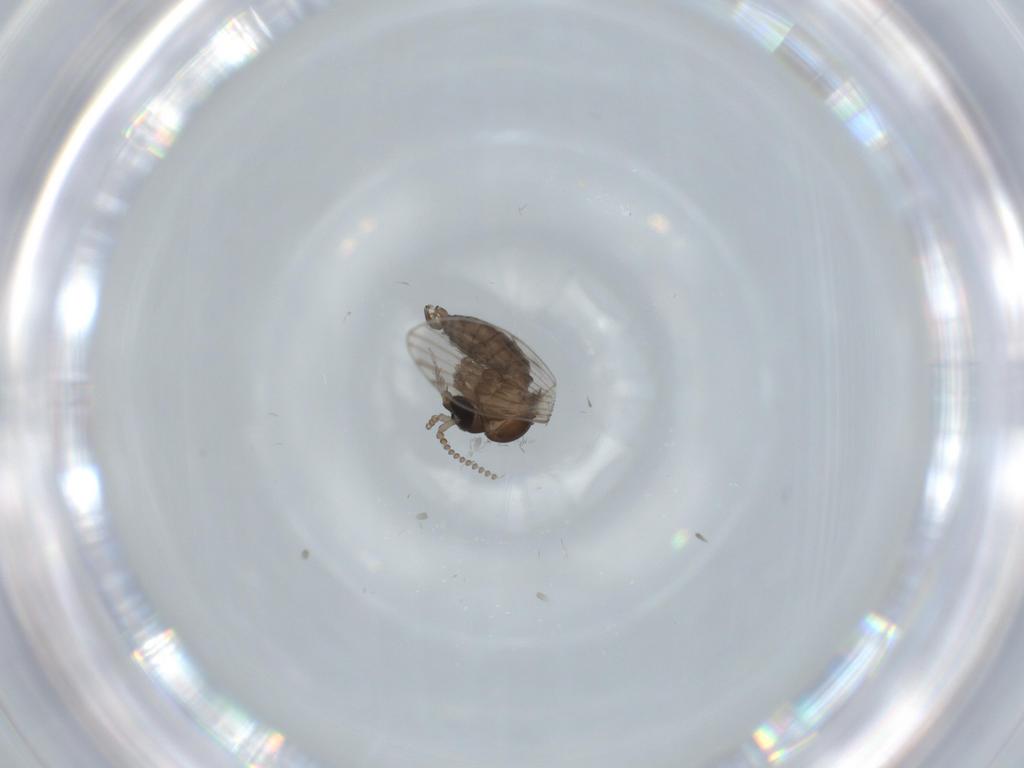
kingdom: Animalia
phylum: Arthropoda
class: Insecta
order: Diptera
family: Psychodidae
